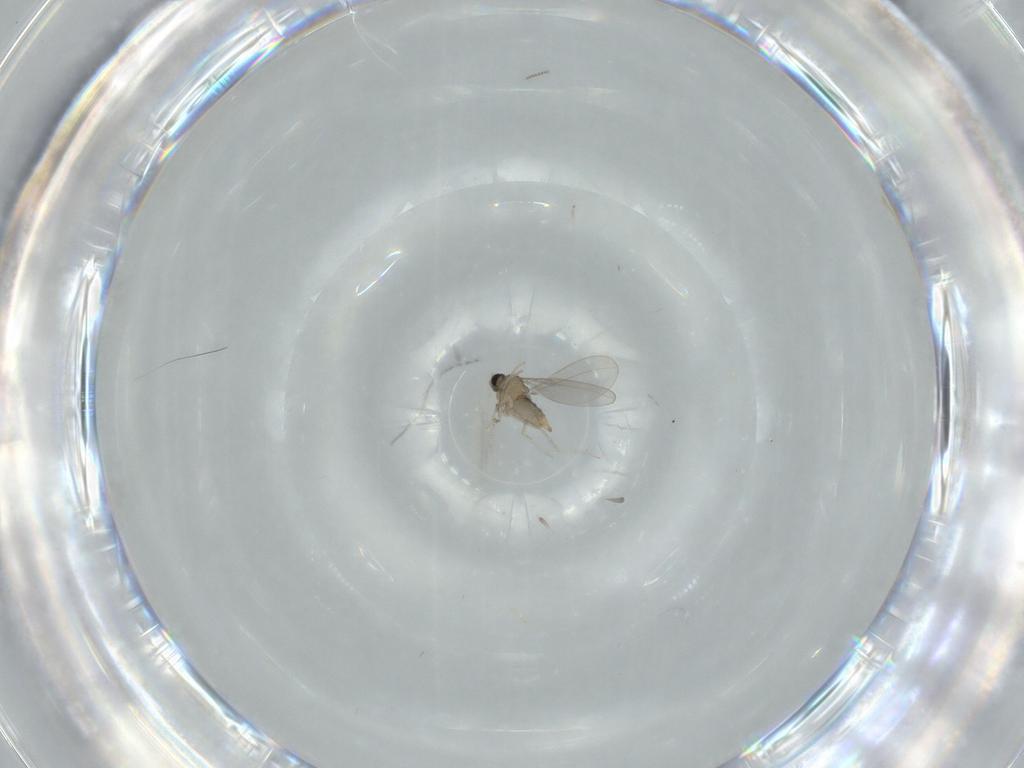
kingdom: Animalia
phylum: Arthropoda
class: Insecta
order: Diptera
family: Cecidomyiidae
